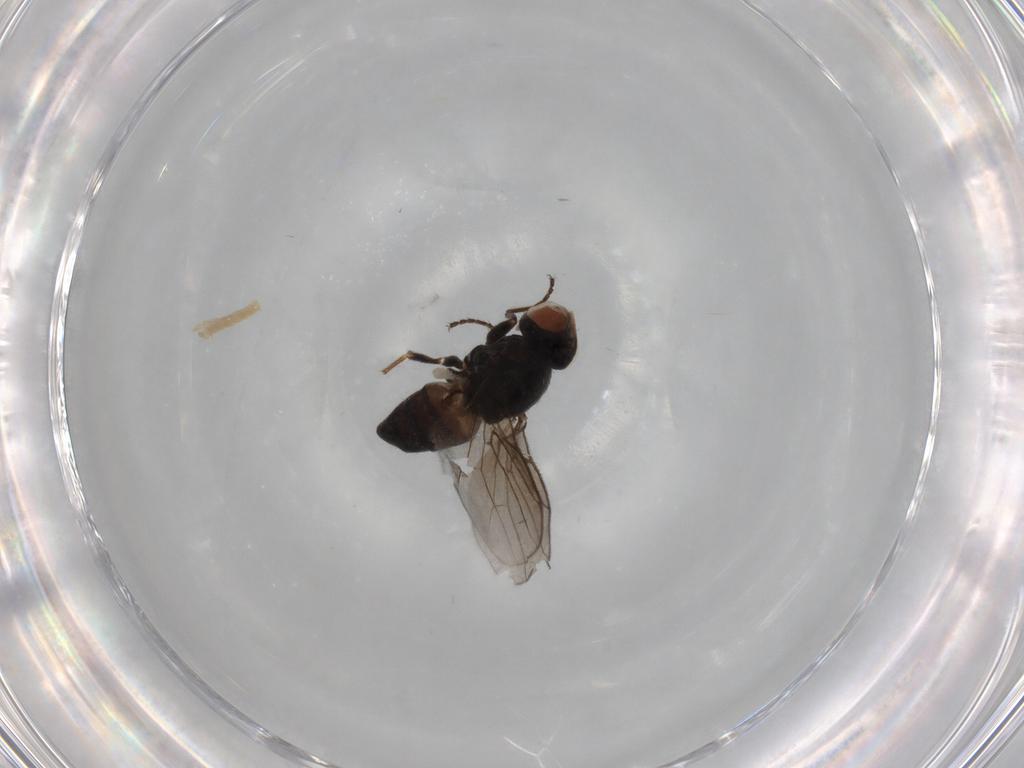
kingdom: Animalia
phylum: Arthropoda
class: Insecta
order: Diptera
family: Chloropidae
